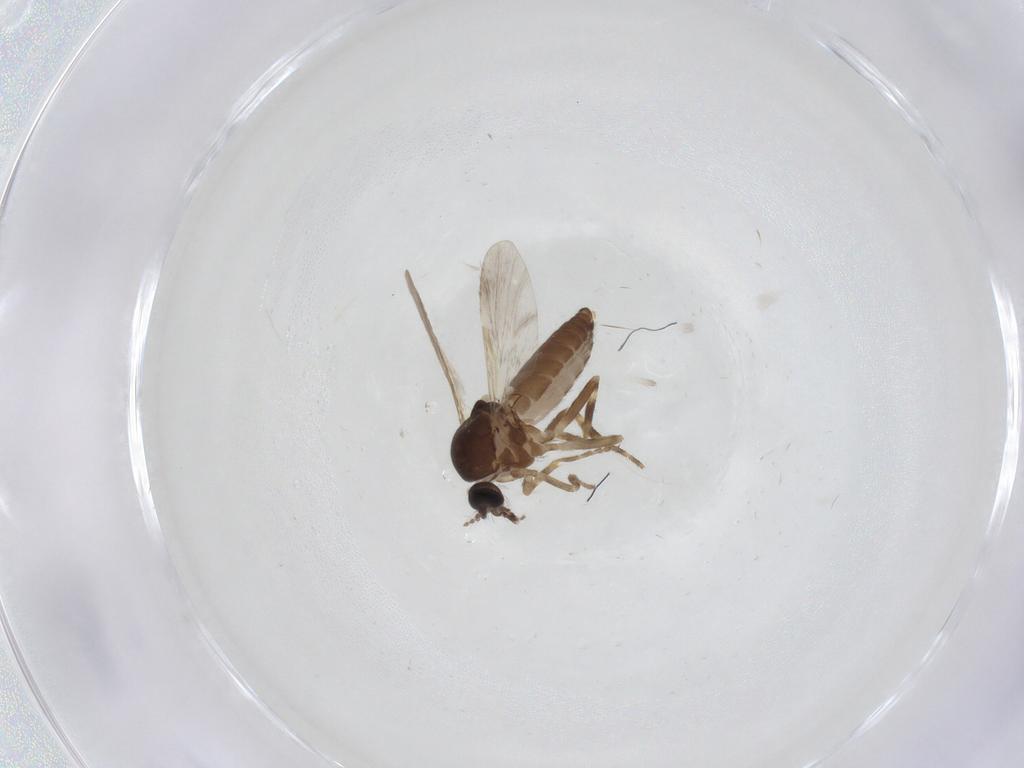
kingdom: Animalia
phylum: Arthropoda
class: Insecta
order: Diptera
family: Ceratopogonidae
